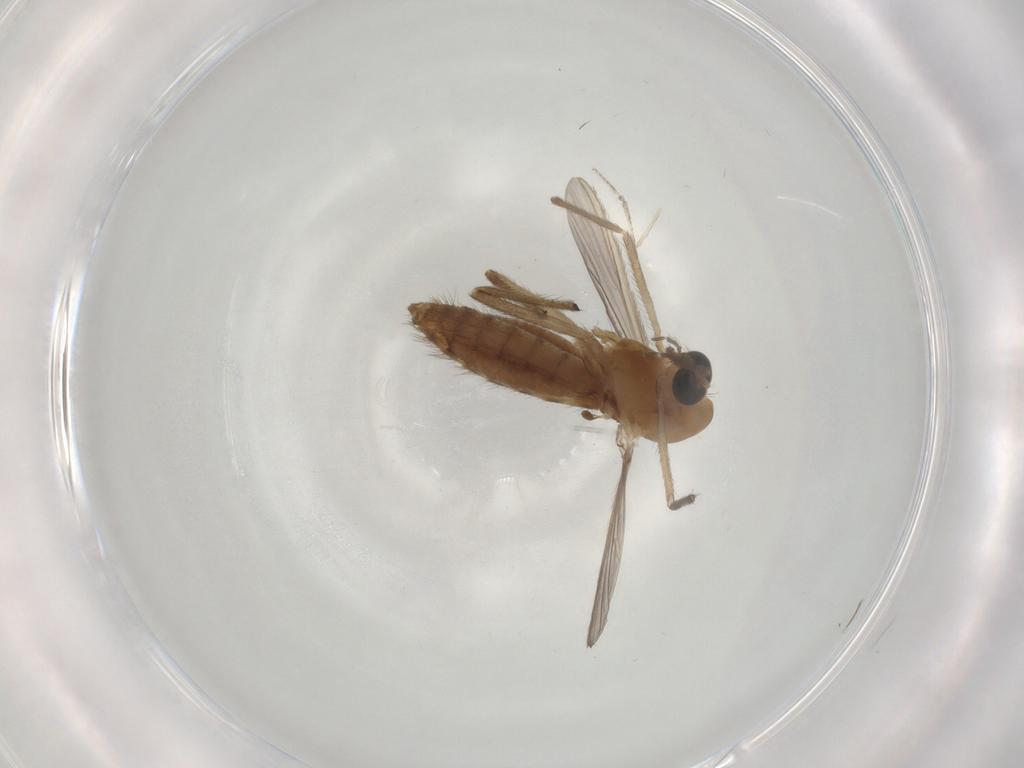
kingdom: Animalia
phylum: Arthropoda
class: Insecta
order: Diptera
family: Chironomidae
